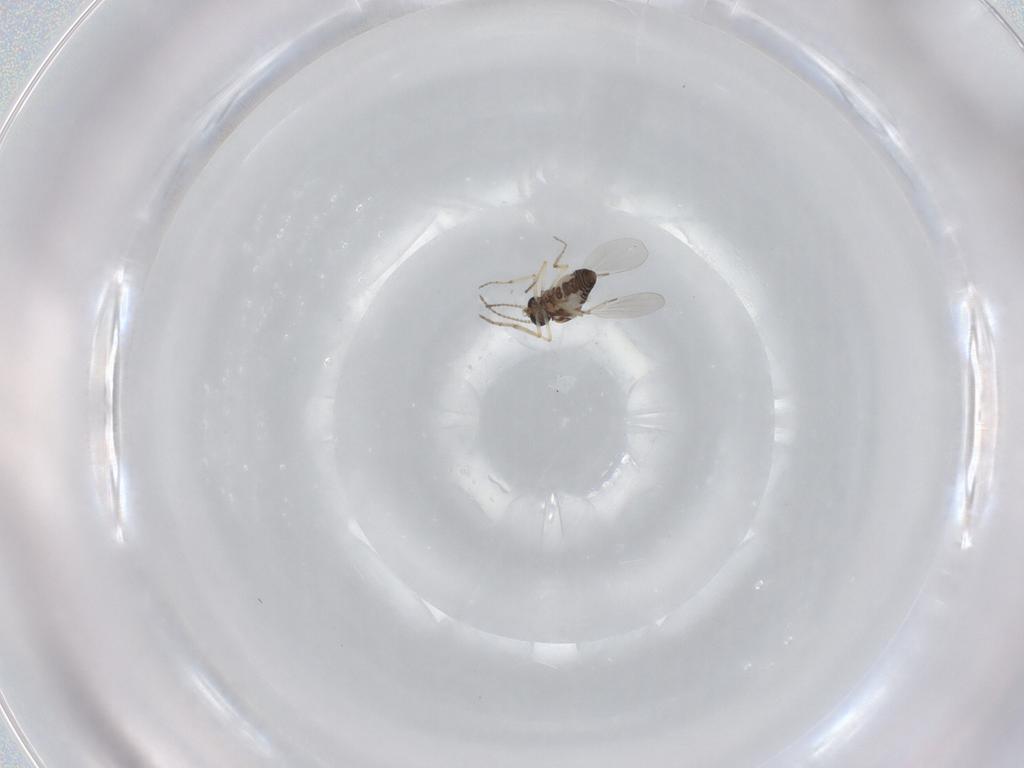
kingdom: Animalia
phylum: Arthropoda
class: Insecta
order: Diptera
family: Ceratopogonidae
